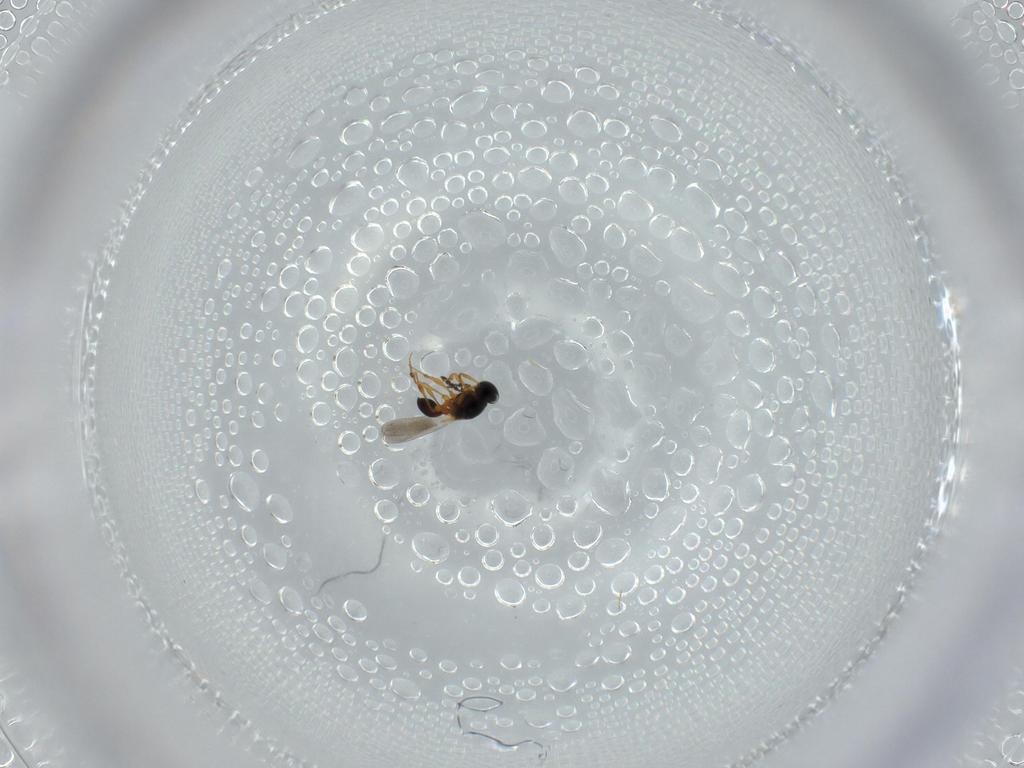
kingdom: Animalia
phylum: Arthropoda
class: Insecta
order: Hymenoptera
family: Platygastridae
